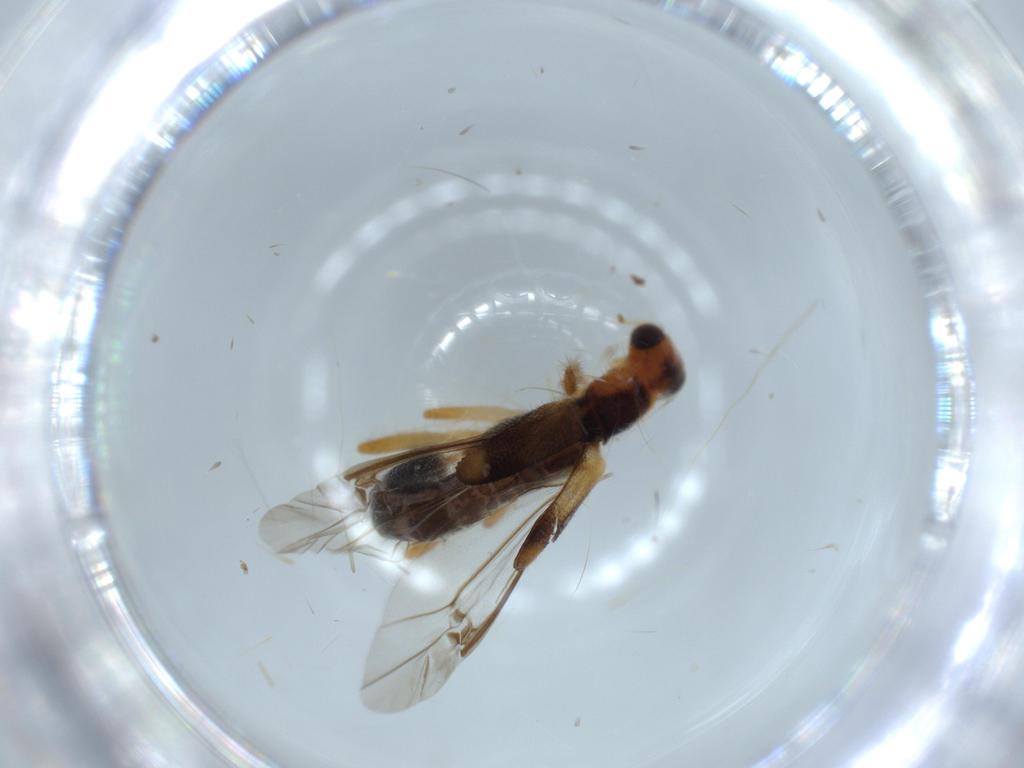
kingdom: Animalia
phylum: Arthropoda
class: Insecta
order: Coleoptera
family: Cleridae
